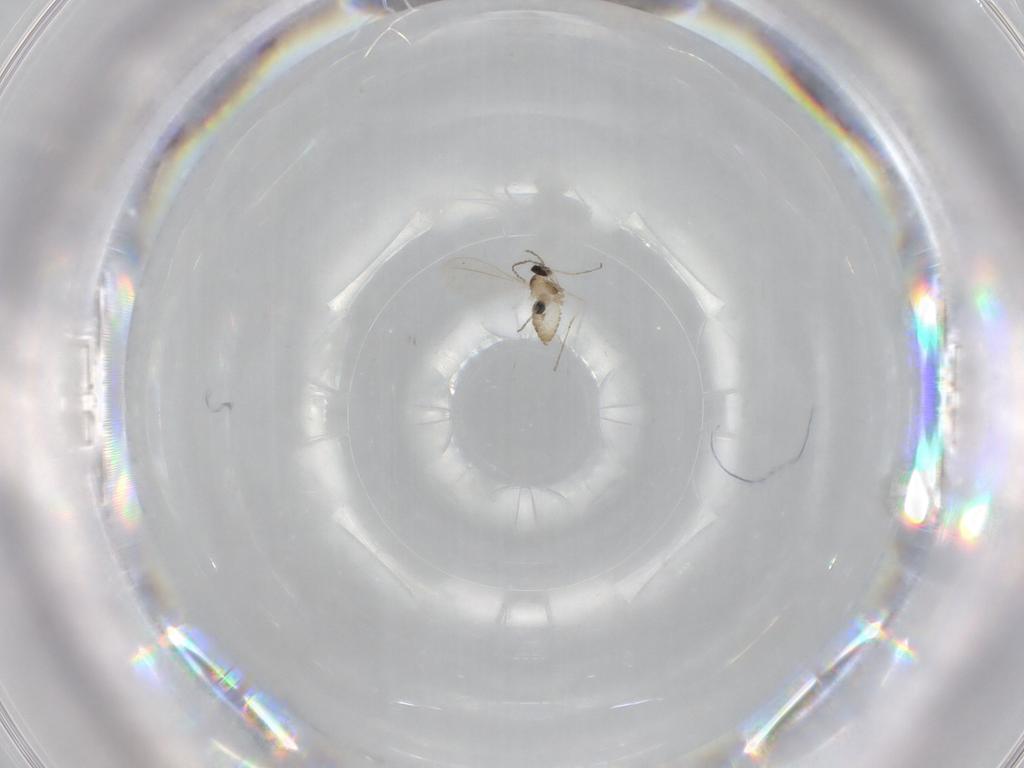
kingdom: Animalia
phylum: Arthropoda
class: Insecta
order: Diptera
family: Cecidomyiidae
